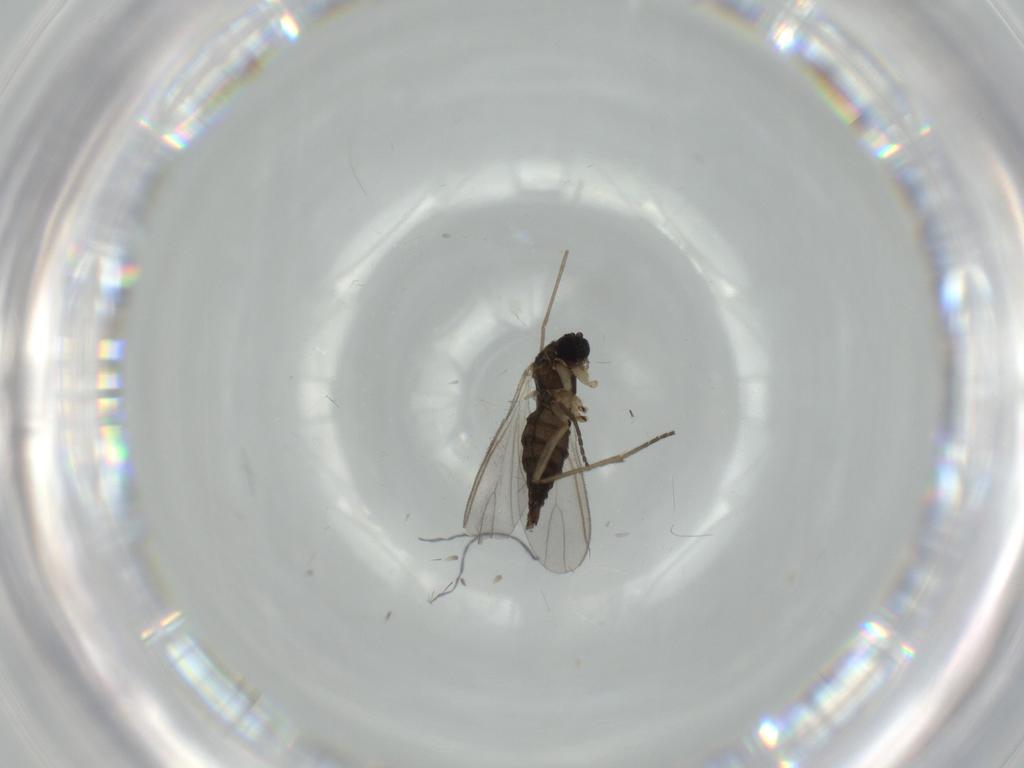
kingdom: Animalia
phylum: Arthropoda
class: Insecta
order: Diptera
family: Sciaridae
